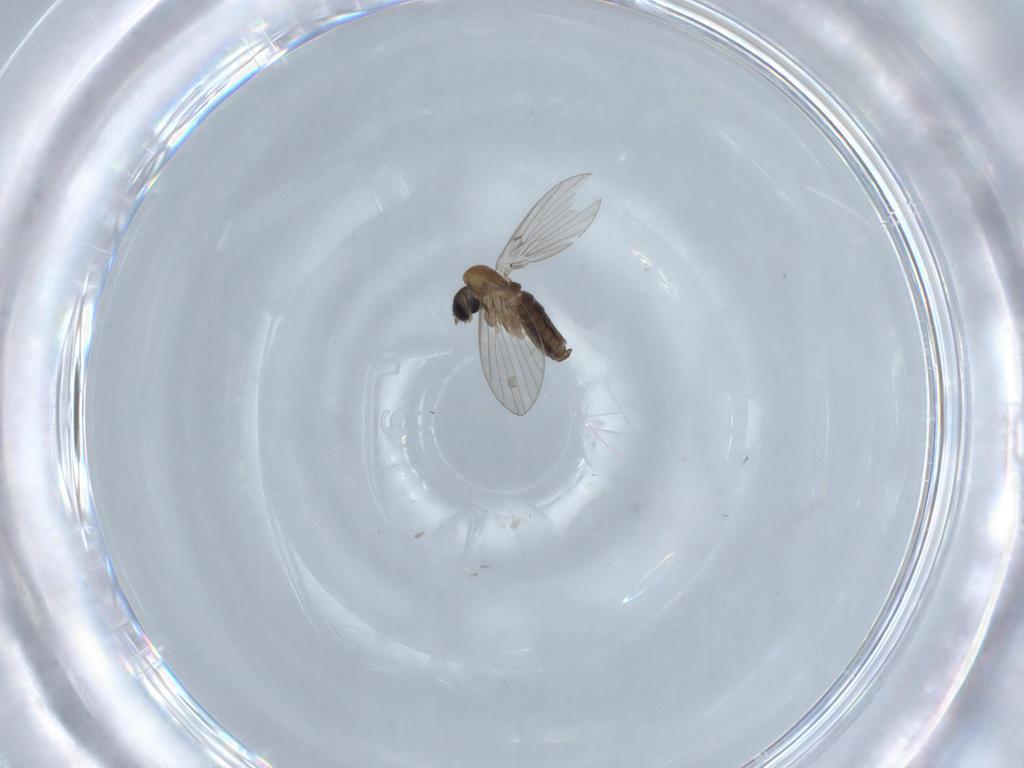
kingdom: Animalia
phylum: Arthropoda
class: Insecta
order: Diptera
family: Psychodidae
